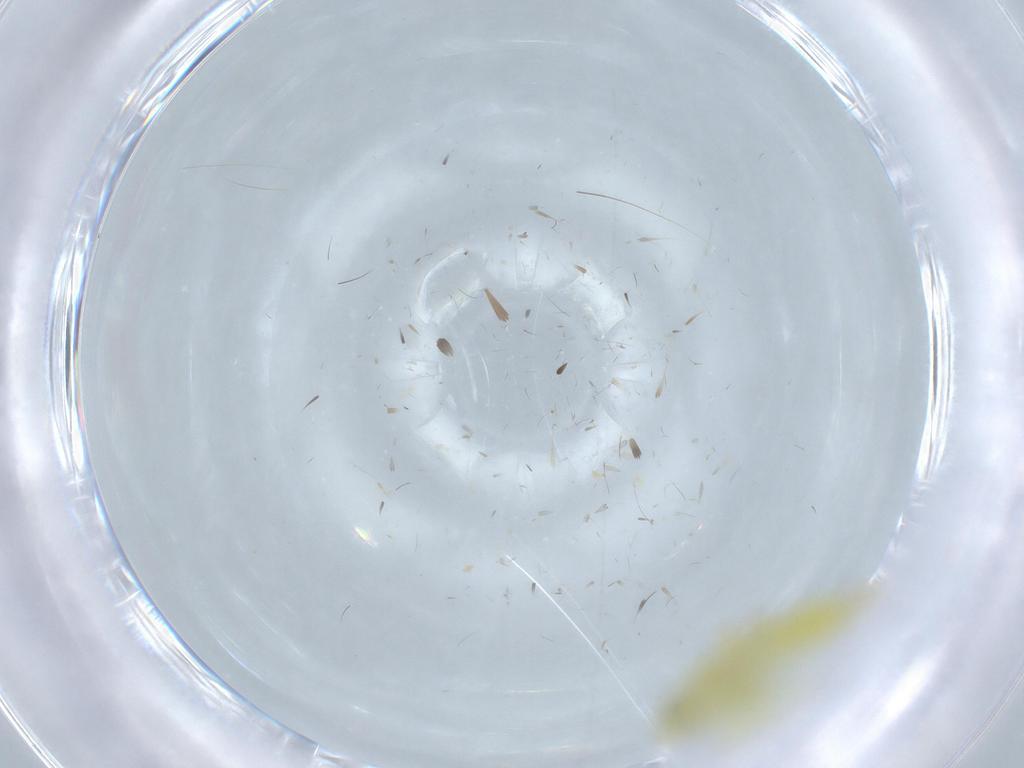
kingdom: Animalia
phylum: Arthropoda
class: Insecta
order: Hemiptera
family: Cicadellidae
